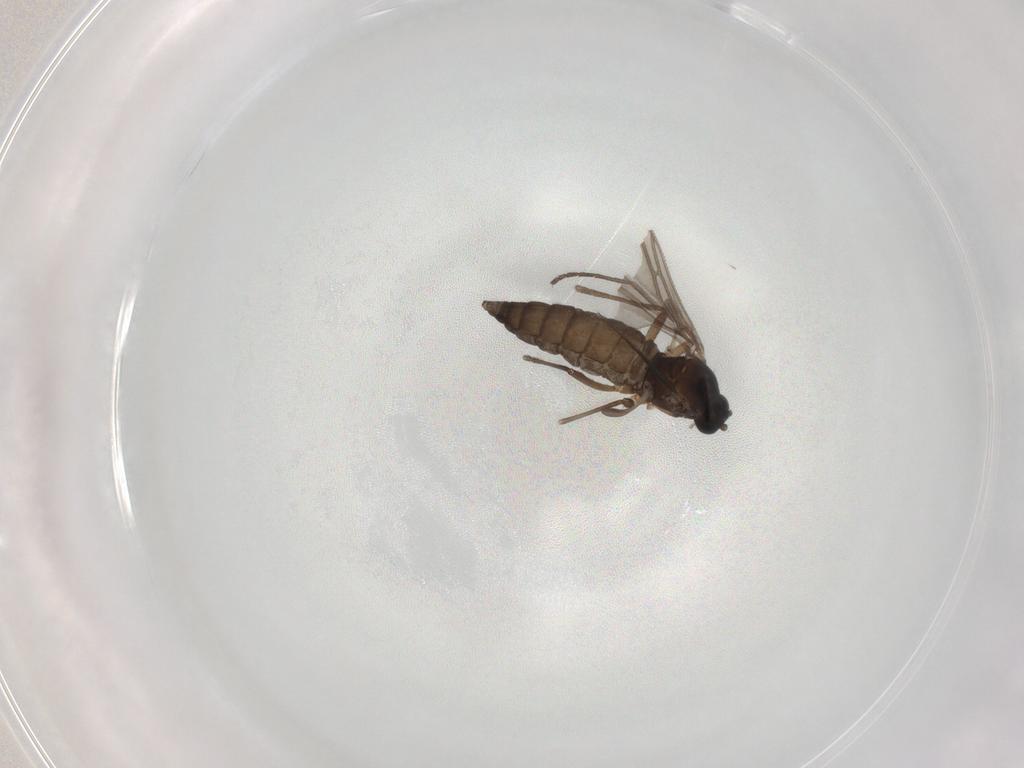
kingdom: Animalia
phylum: Arthropoda
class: Insecta
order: Diptera
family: Sciaridae
